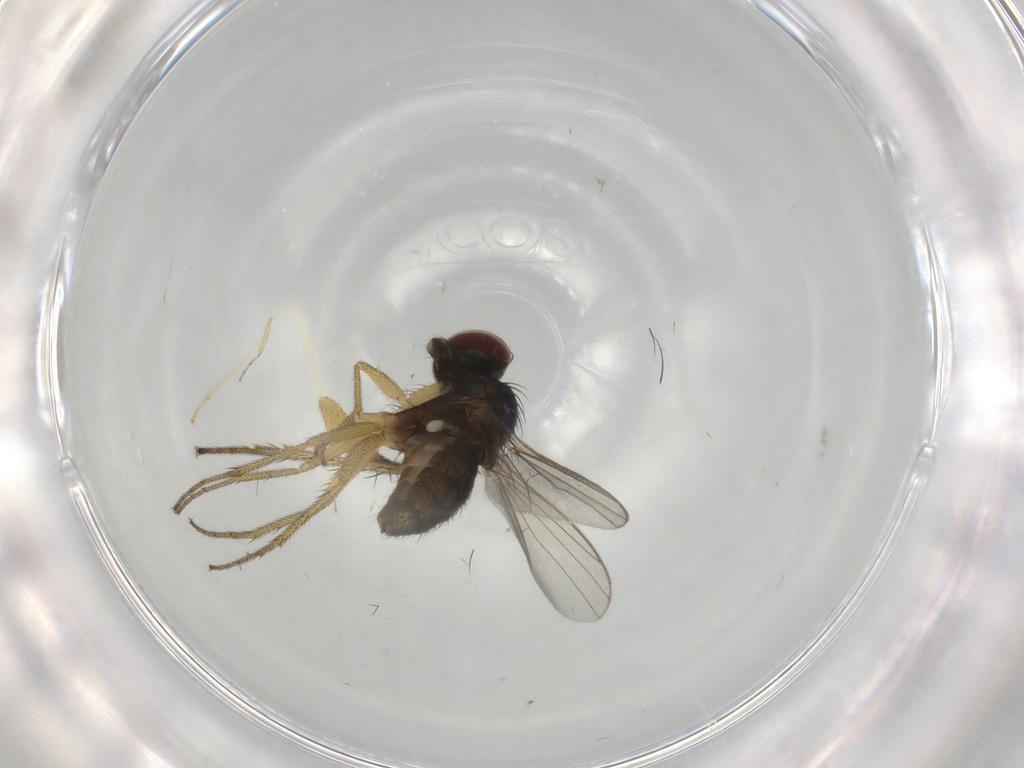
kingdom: Animalia
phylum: Arthropoda
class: Insecta
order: Diptera
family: Dolichopodidae
